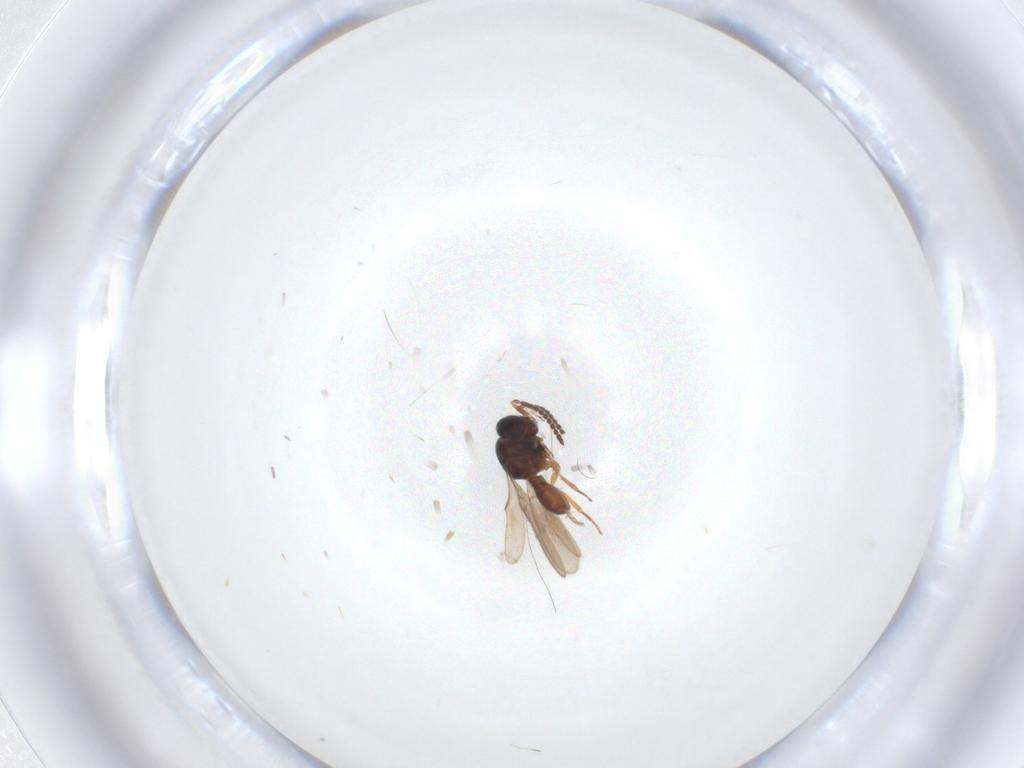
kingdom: Animalia
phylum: Arthropoda
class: Insecta
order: Hymenoptera
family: Scelionidae
